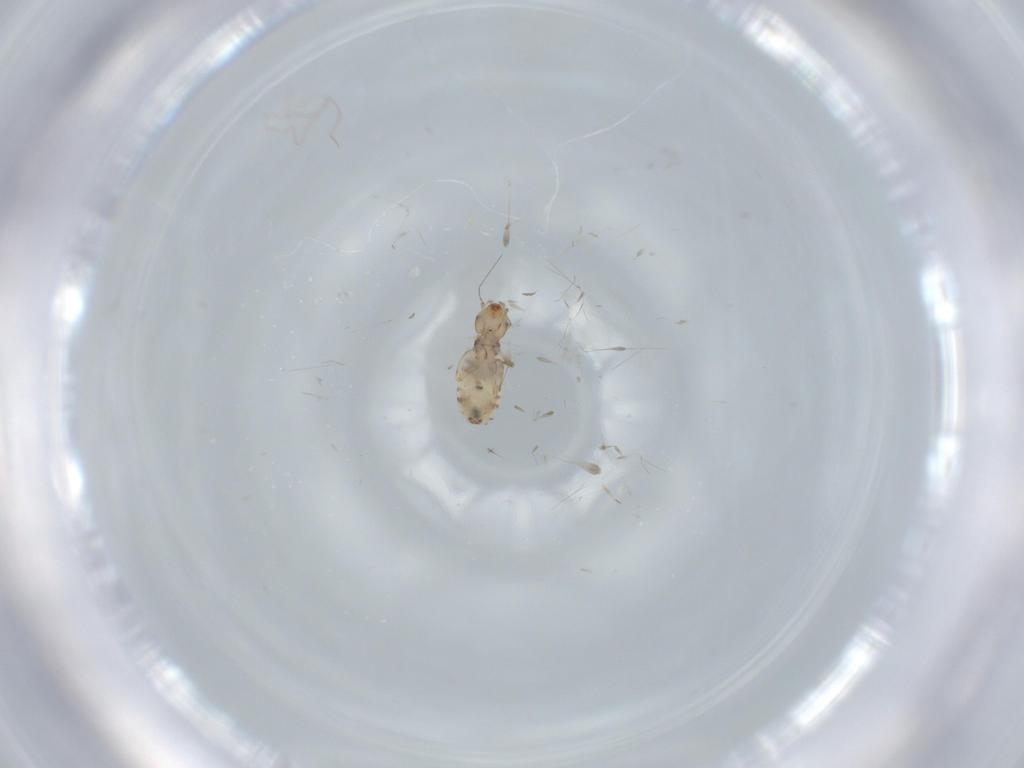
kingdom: Animalia
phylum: Arthropoda
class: Insecta
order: Psocodea
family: Liposcelididae
